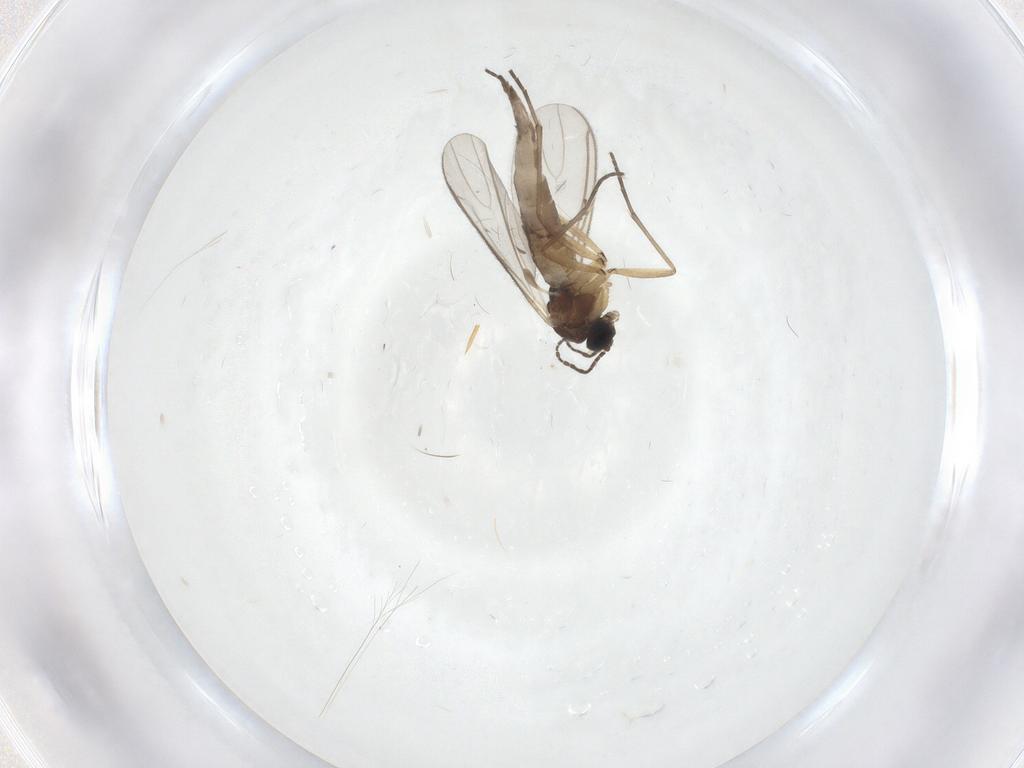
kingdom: Animalia
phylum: Arthropoda
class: Insecta
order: Diptera
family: Sciaridae
